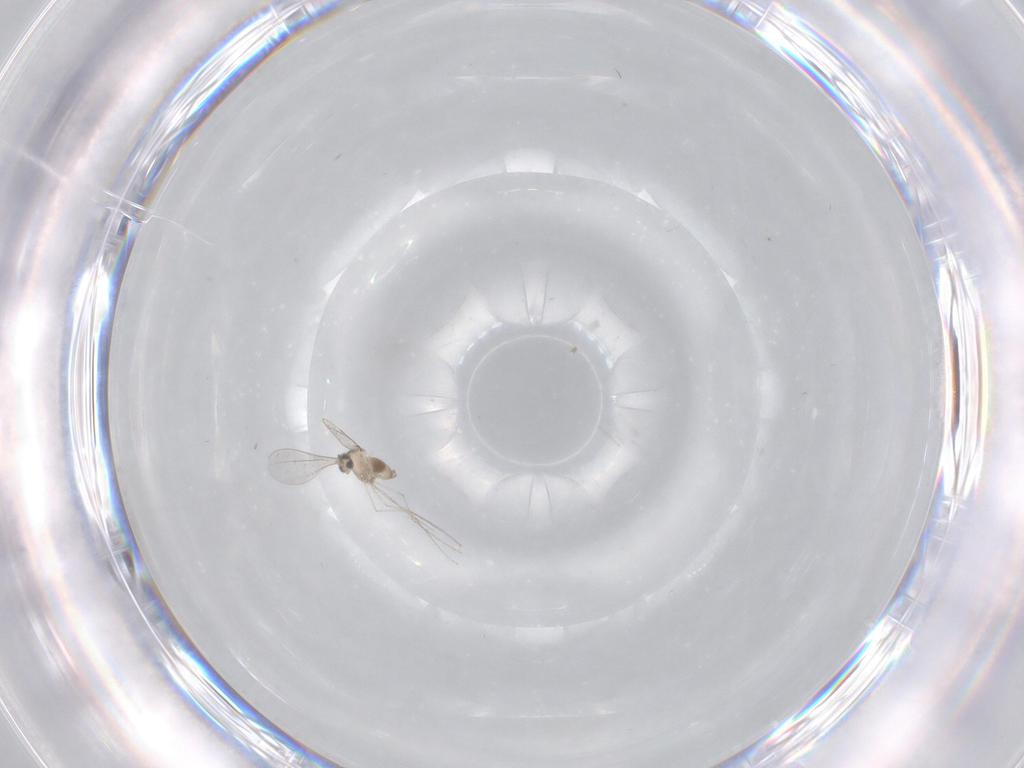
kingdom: Animalia
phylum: Arthropoda
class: Insecta
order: Diptera
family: Cecidomyiidae
